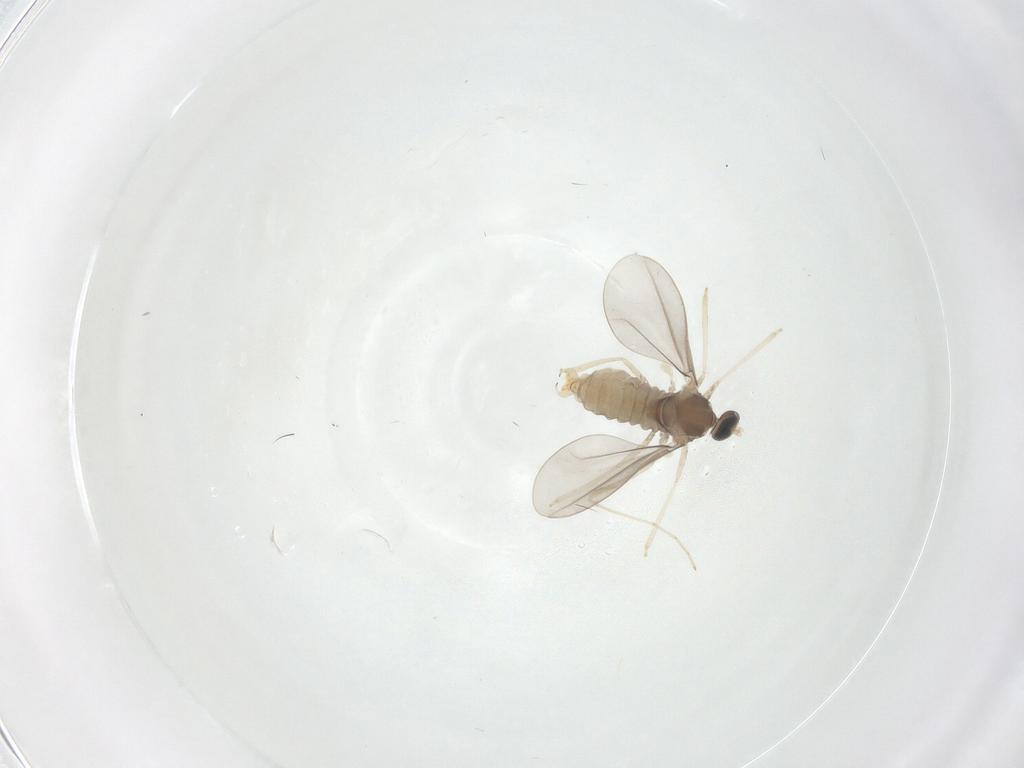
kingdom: Animalia
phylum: Arthropoda
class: Insecta
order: Diptera
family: Cecidomyiidae
